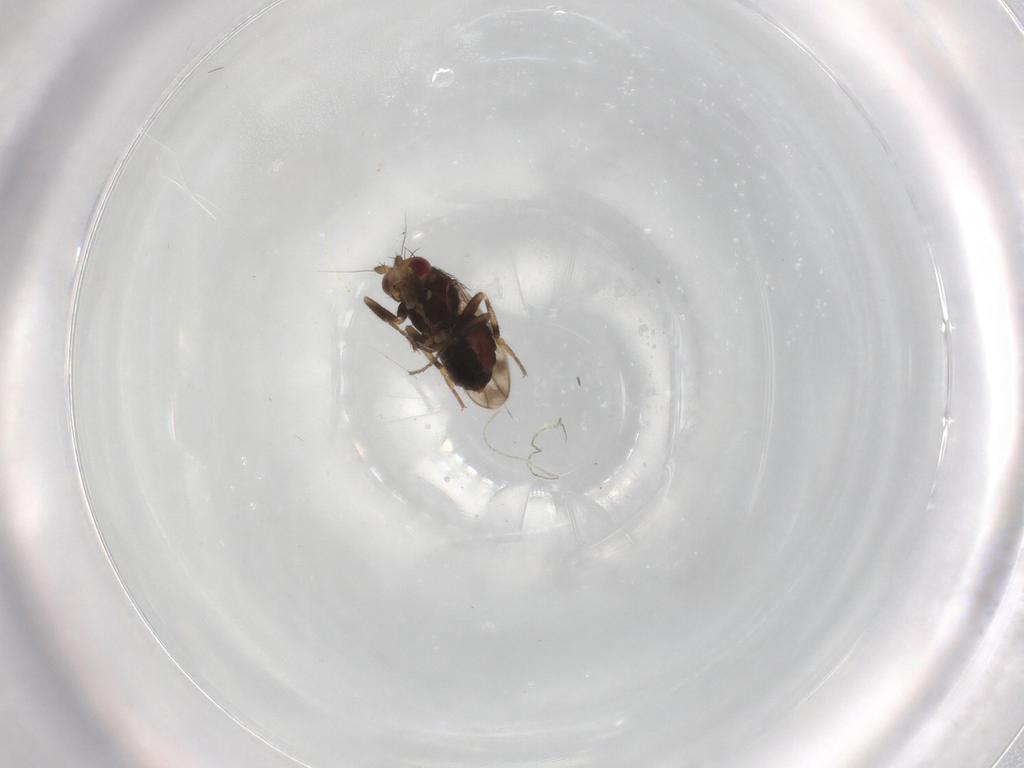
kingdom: Animalia
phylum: Arthropoda
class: Insecta
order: Diptera
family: Sphaeroceridae
